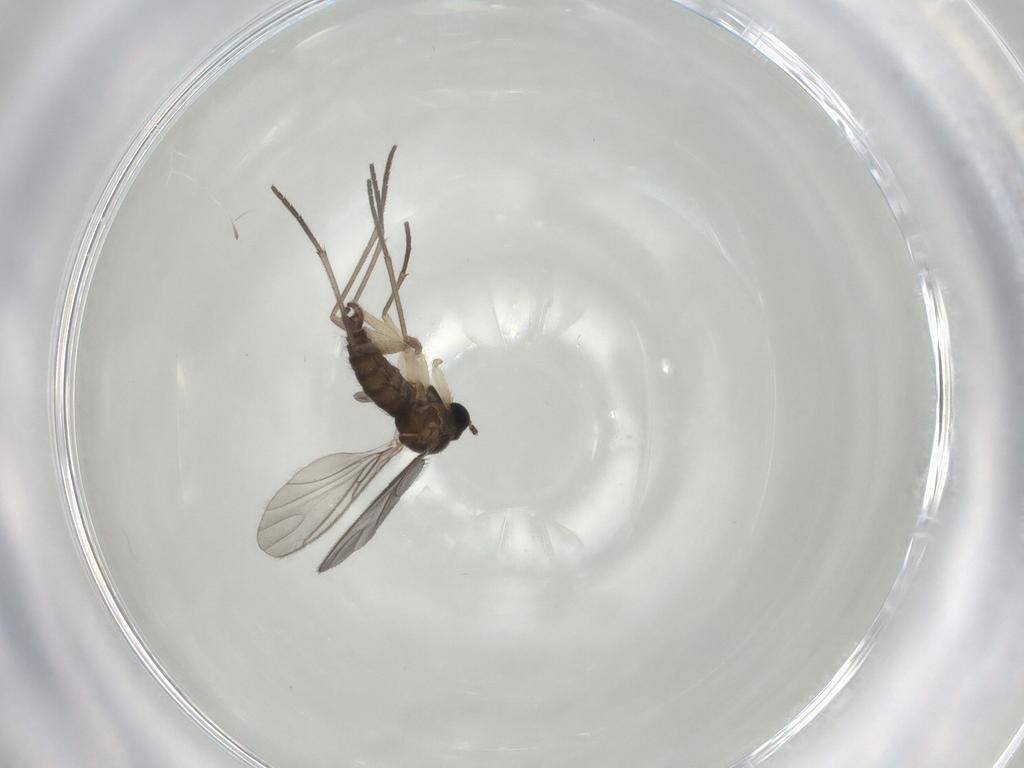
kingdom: Animalia
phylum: Arthropoda
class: Insecta
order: Diptera
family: Sciaridae
